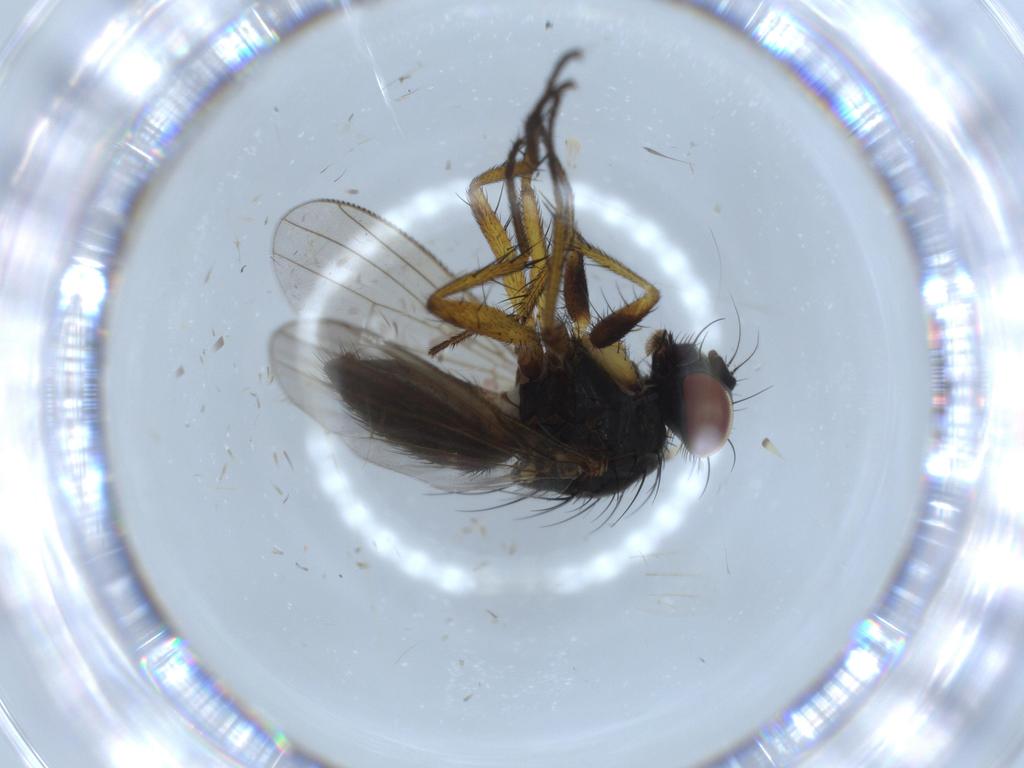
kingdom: Animalia
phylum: Arthropoda
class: Insecta
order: Diptera
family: Muscidae
